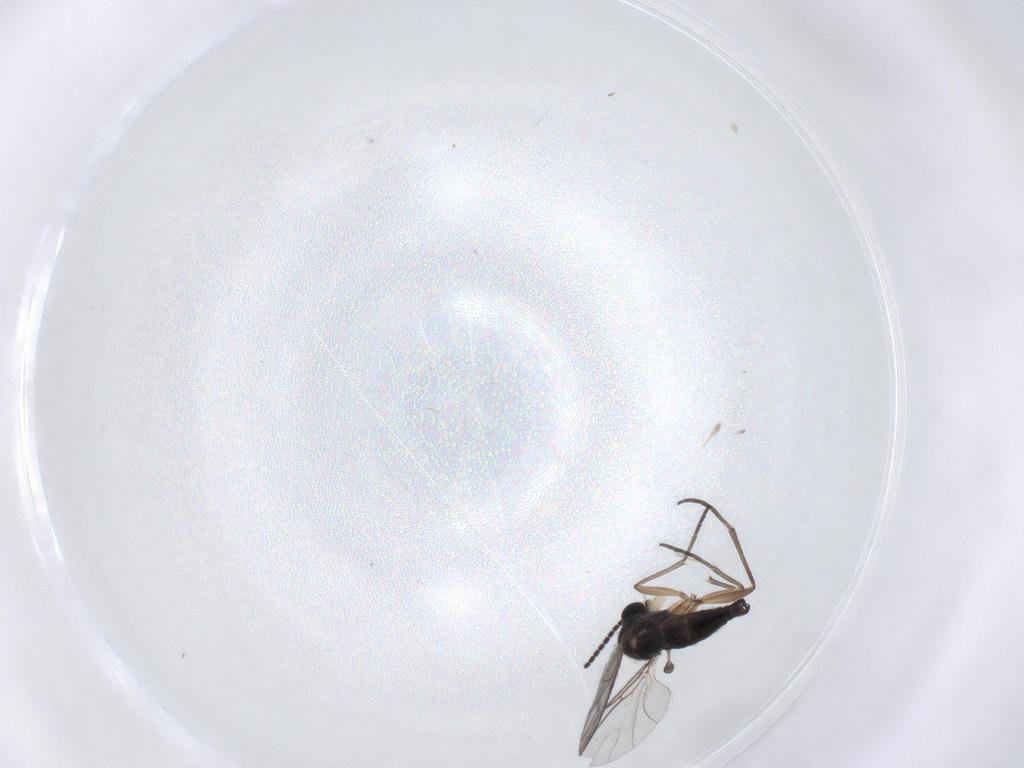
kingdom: Animalia
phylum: Arthropoda
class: Insecta
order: Diptera
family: Sciaridae
